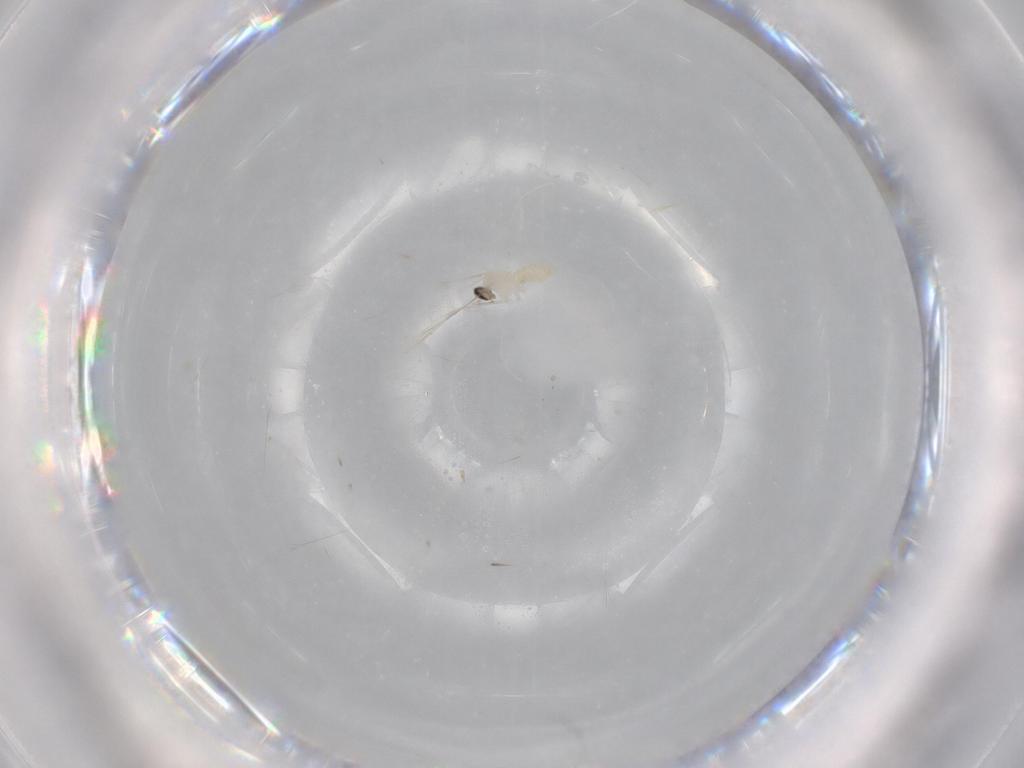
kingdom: Animalia
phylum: Arthropoda
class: Insecta
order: Diptera
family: Cecidomyiidae
